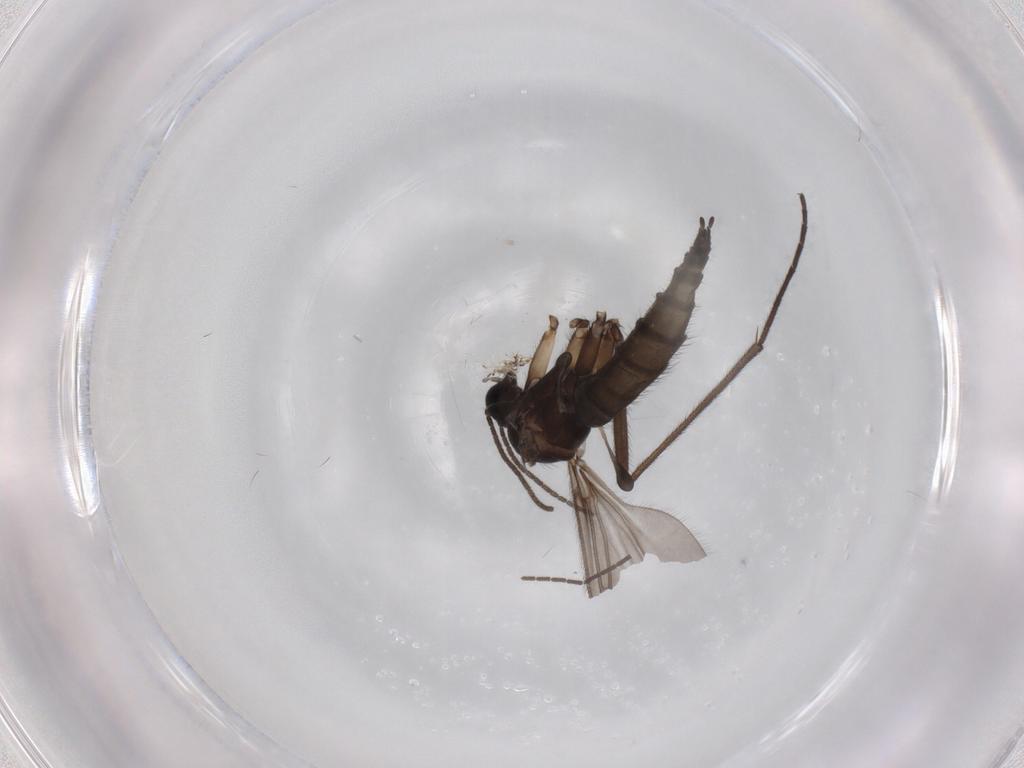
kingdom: Animalia
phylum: Arthropoda
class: Insecta
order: Diptera
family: Sciaridae
